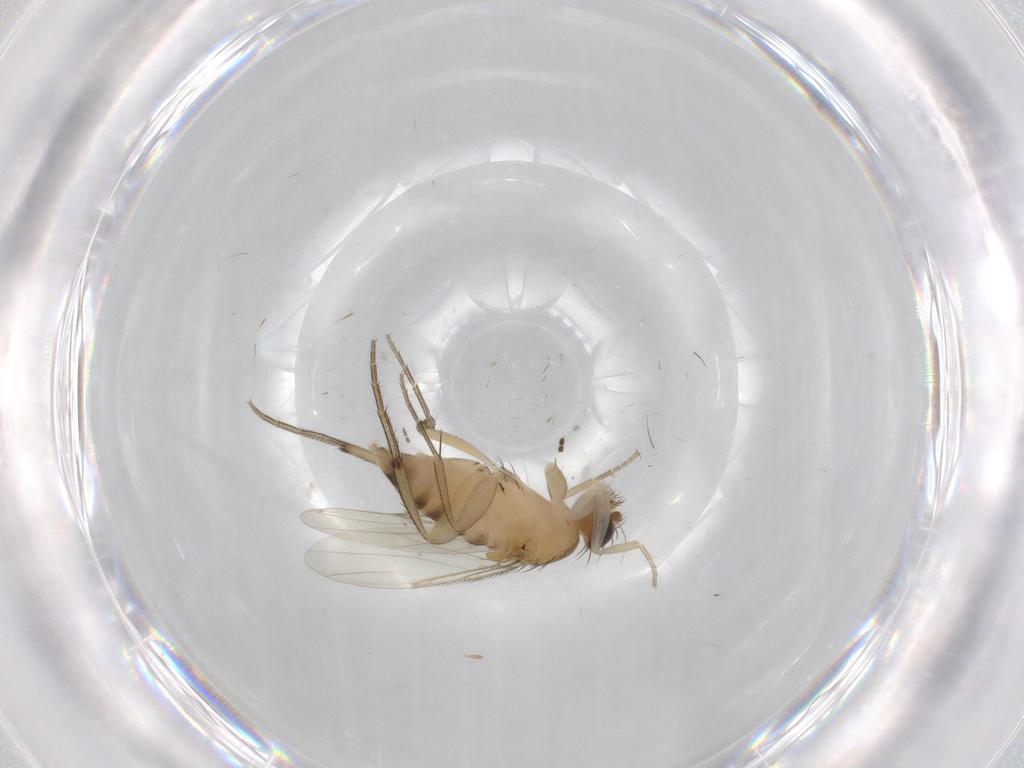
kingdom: Animalia
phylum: Arthropoda
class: Insecta
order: Diptera
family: Phoridae
